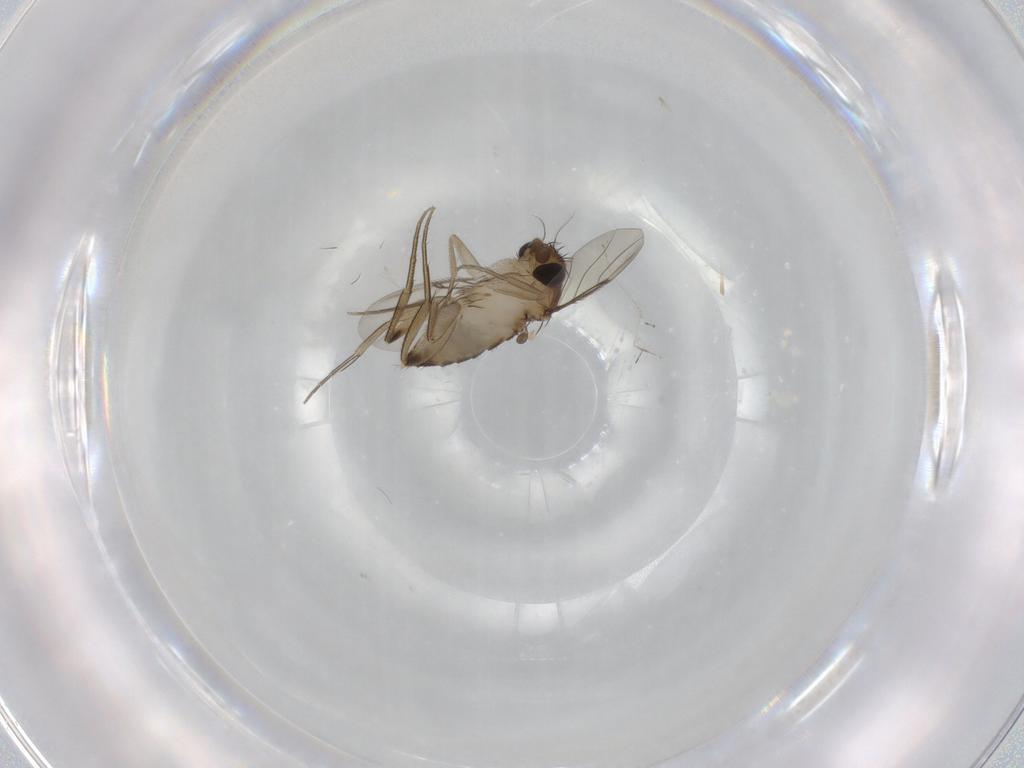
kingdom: Animalia
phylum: Arthropoda
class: Insecta
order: Diptera
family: Phoridae
